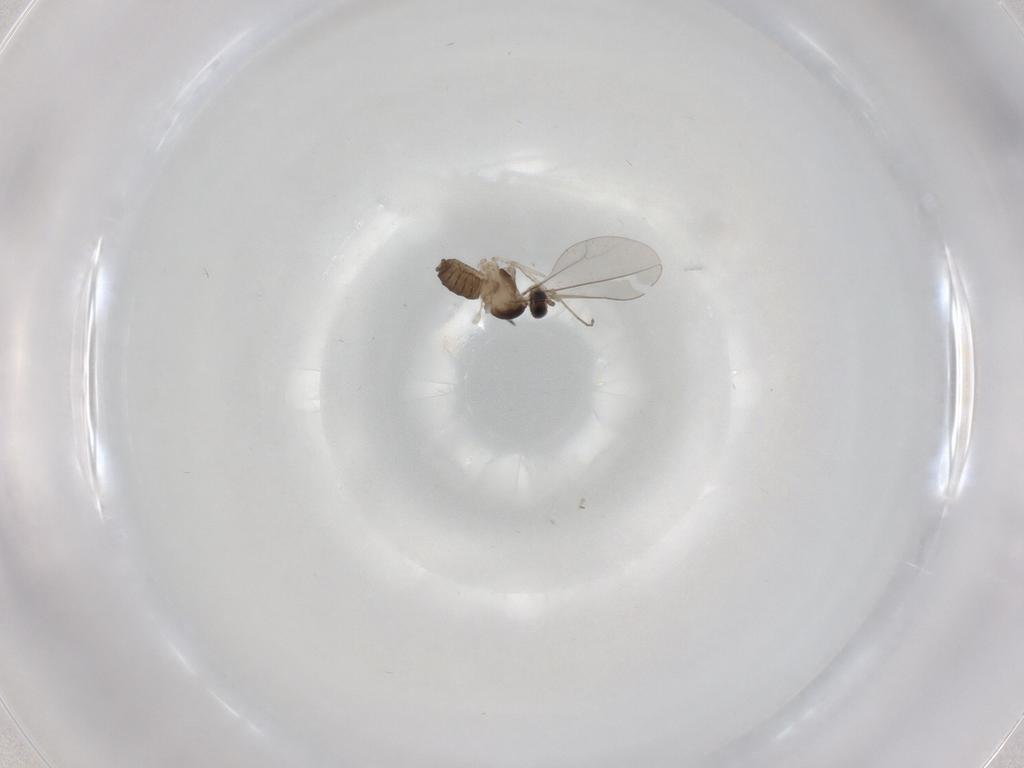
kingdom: Animalia
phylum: Arthropoda
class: Insecta
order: Diptera
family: Cecidomyiidae
